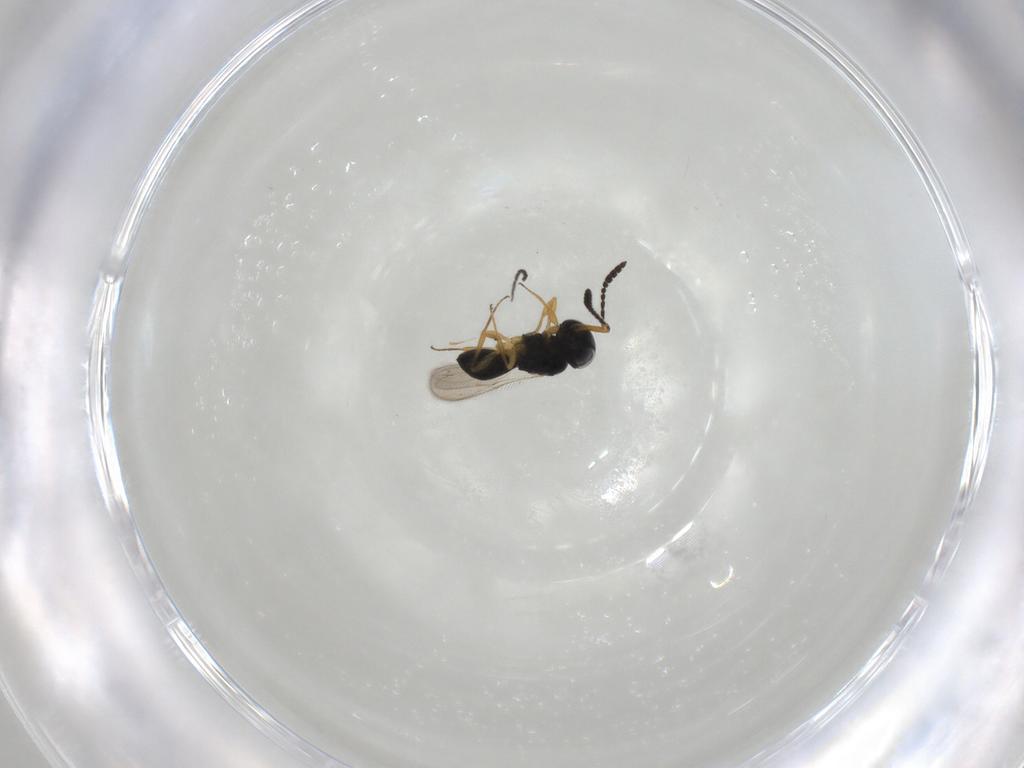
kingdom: Animalia
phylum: Arthropoda
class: Insecta
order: Hymenoptera
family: Scelionidae
